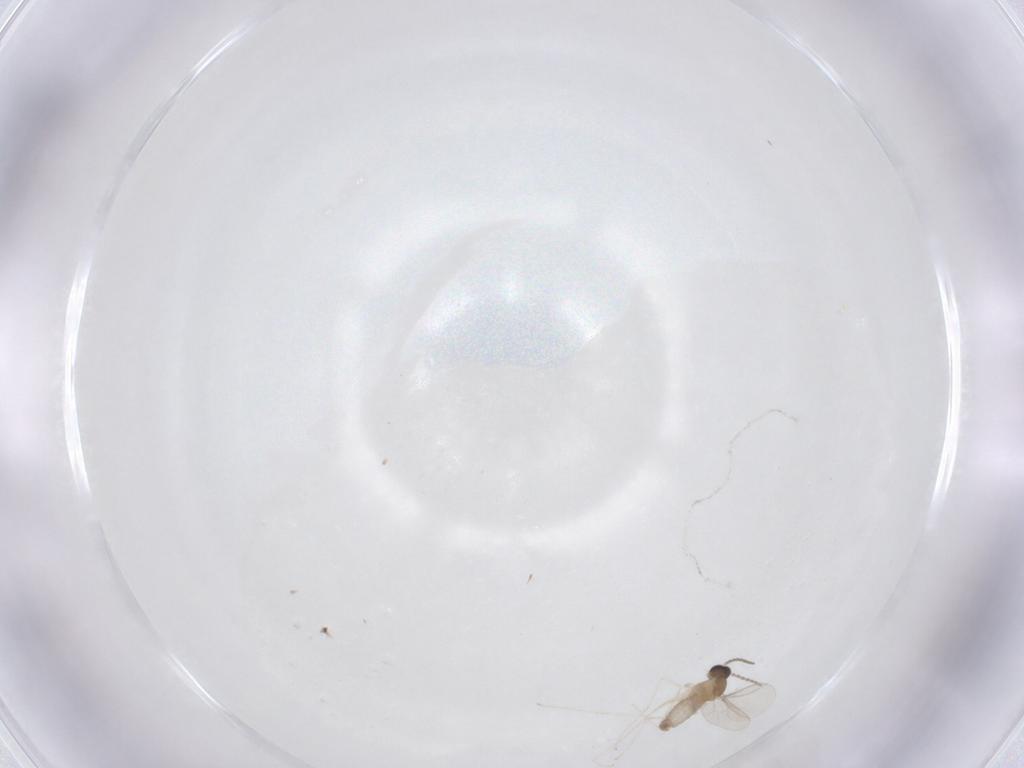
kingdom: Animalia
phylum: Arthropoda
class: Insecta
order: Diptera
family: Cecidomyiidae
